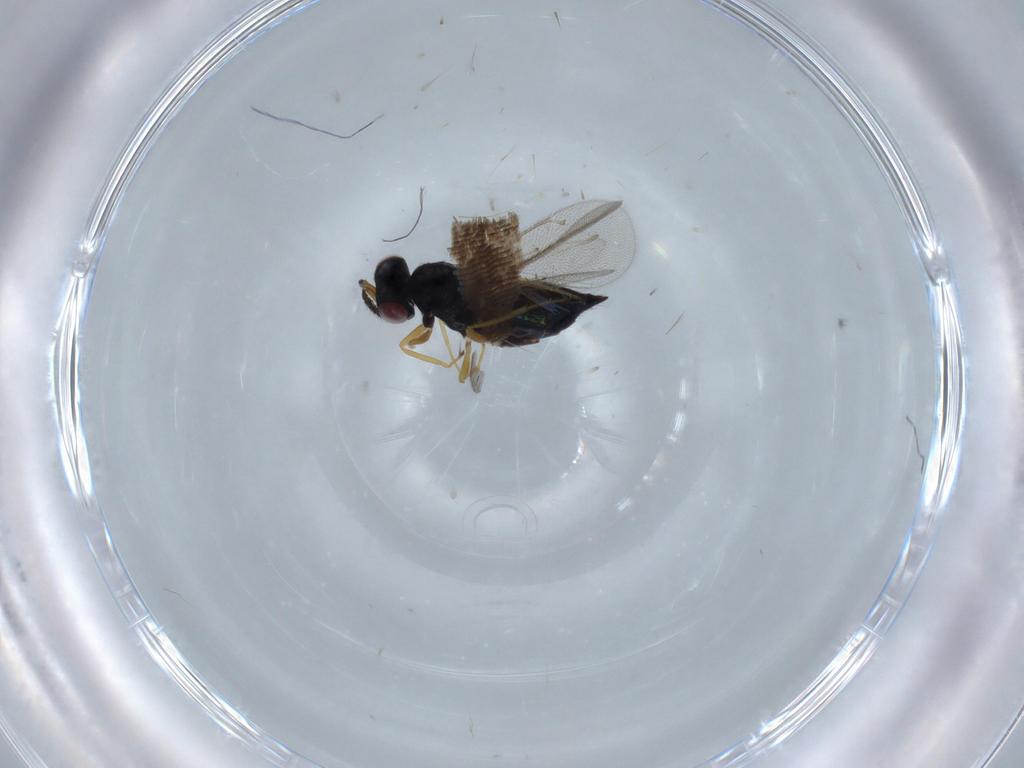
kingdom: Animalia
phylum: Arthropoda
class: Insecta
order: Hymenoptera
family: Eulophidae
